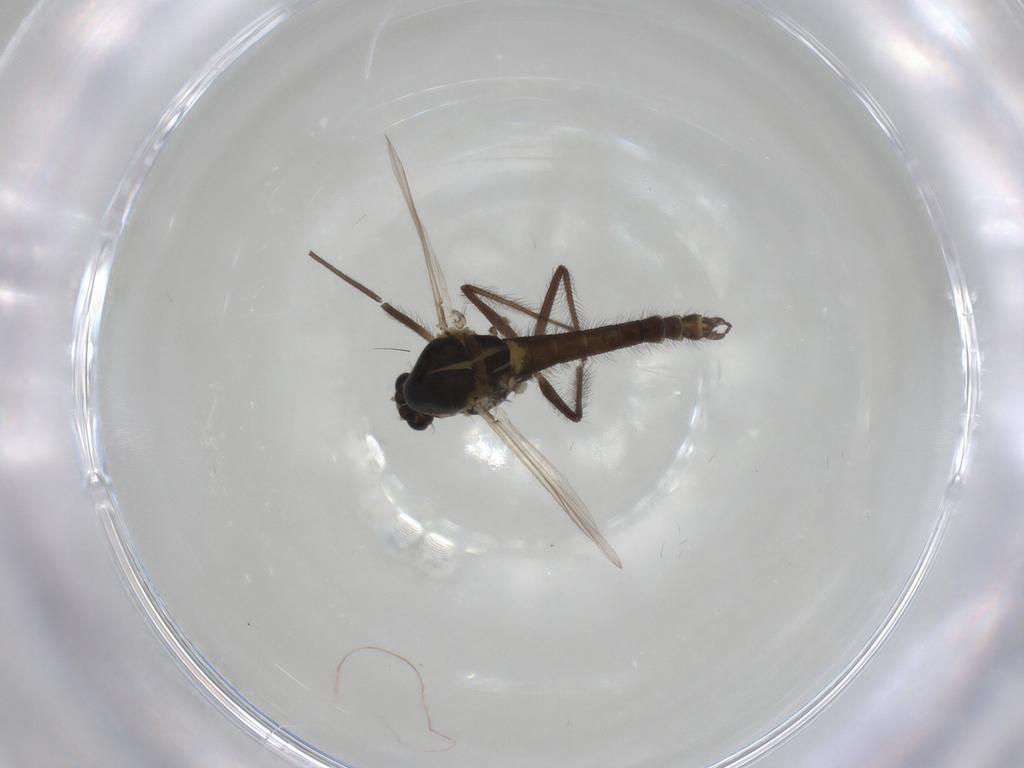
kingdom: Animalia
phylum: Arthropoda
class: Insecta
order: Diptera
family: Chironomidae
